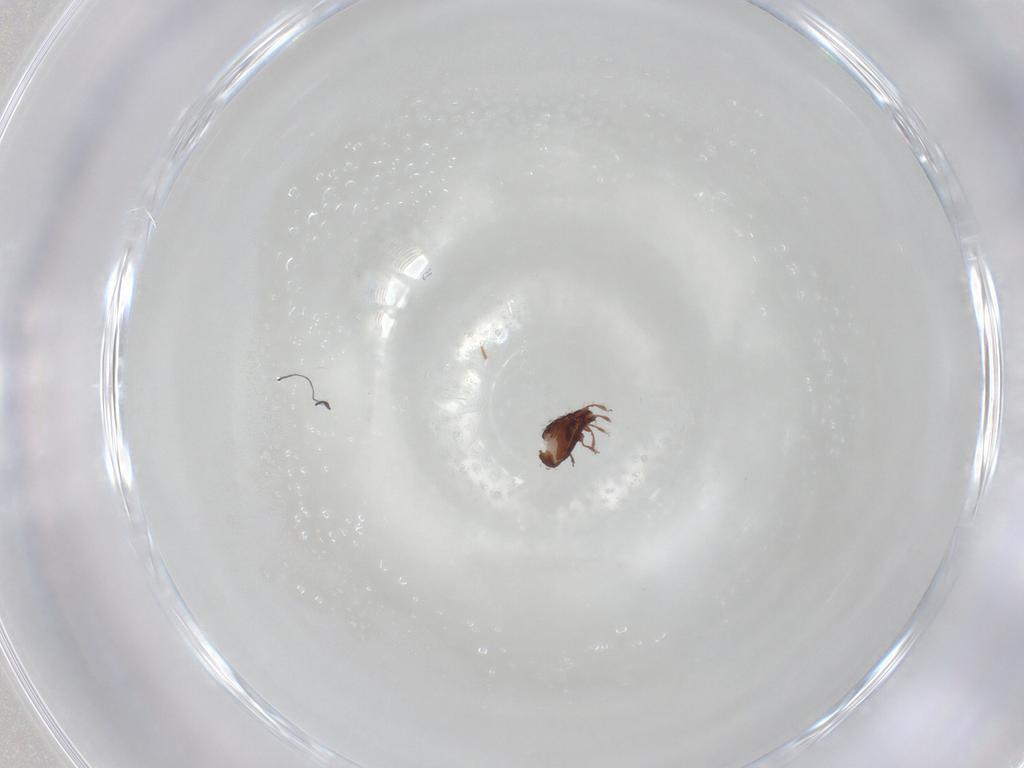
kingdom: Animalia
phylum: Arthropoda
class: Arachnida
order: Sarcoptiformes
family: Scheloribatidae
